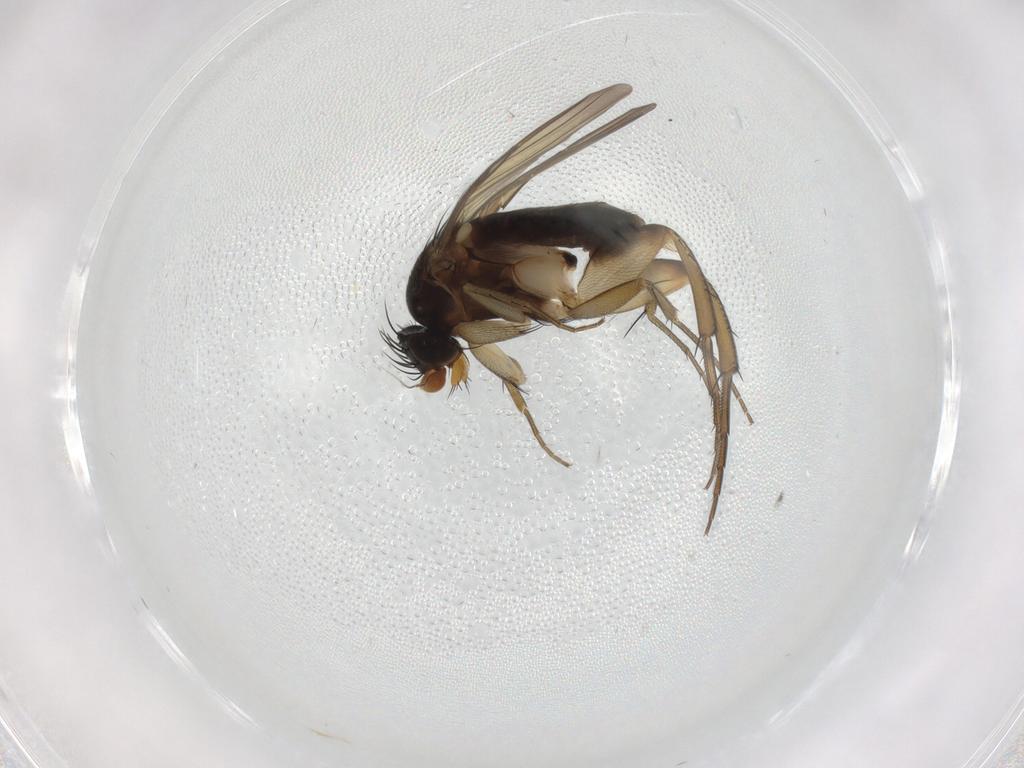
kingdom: Animalia
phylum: Arthropoda
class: Insecta
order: Diptera
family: Phoridae
